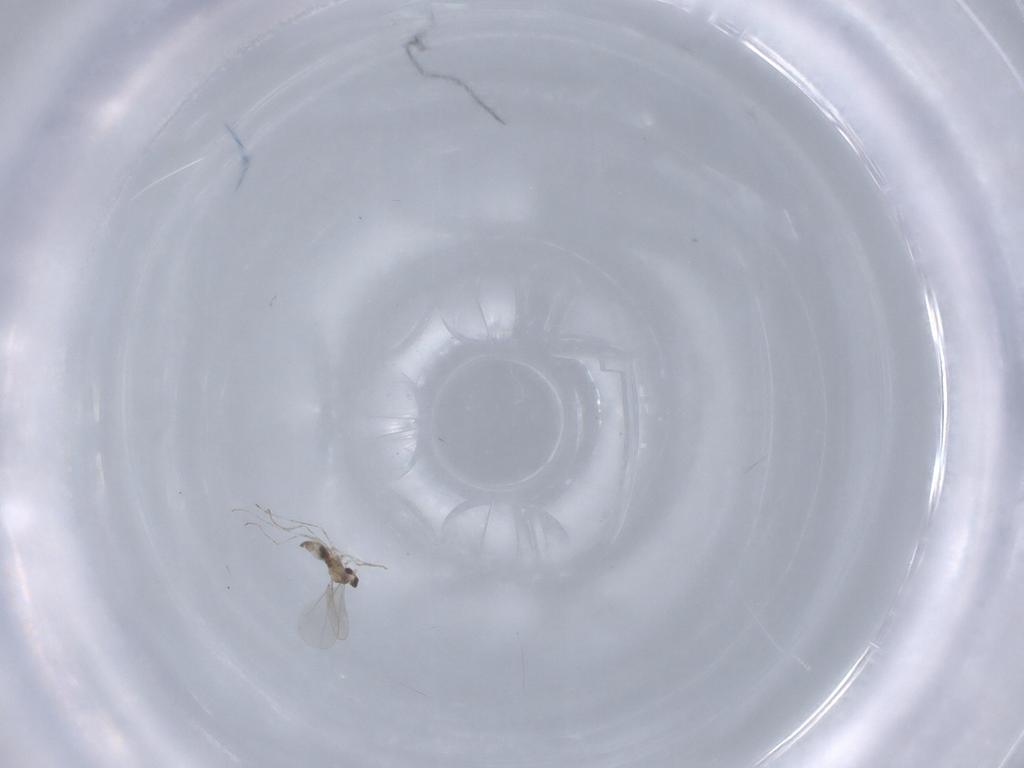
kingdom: Animalia
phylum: Arthropoda
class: Insecta
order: Diptera
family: Cecidomyiidae
